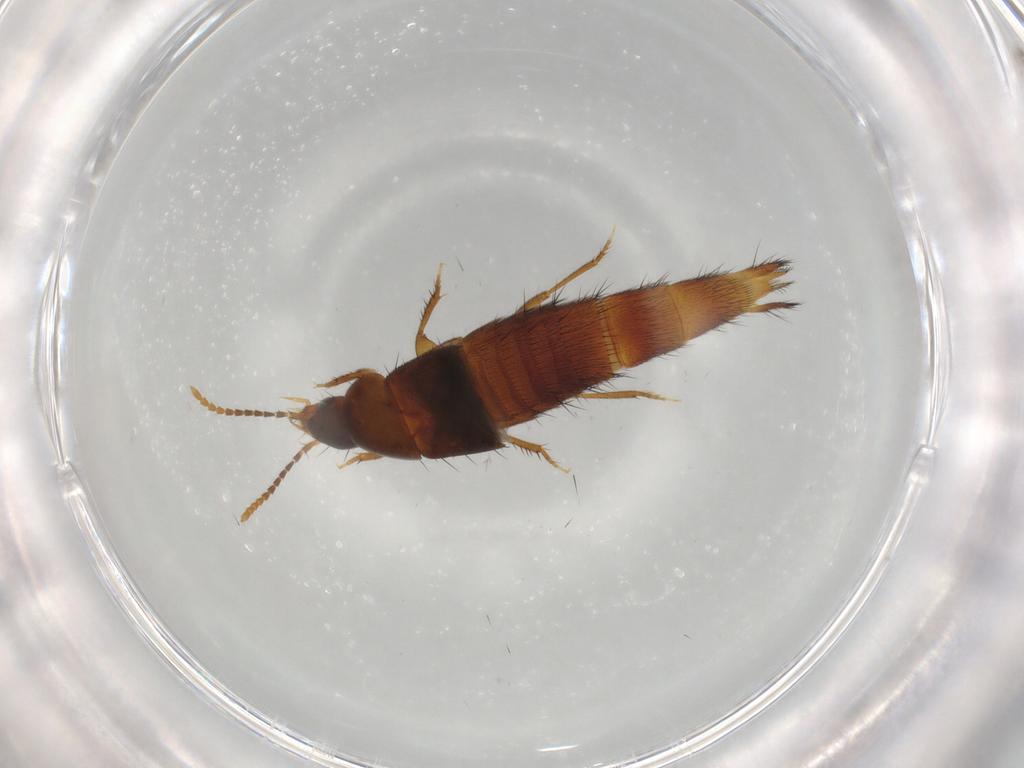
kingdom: Animalia
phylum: Arthropoda
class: Insecta
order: Coleoptera
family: Staphylinidae
